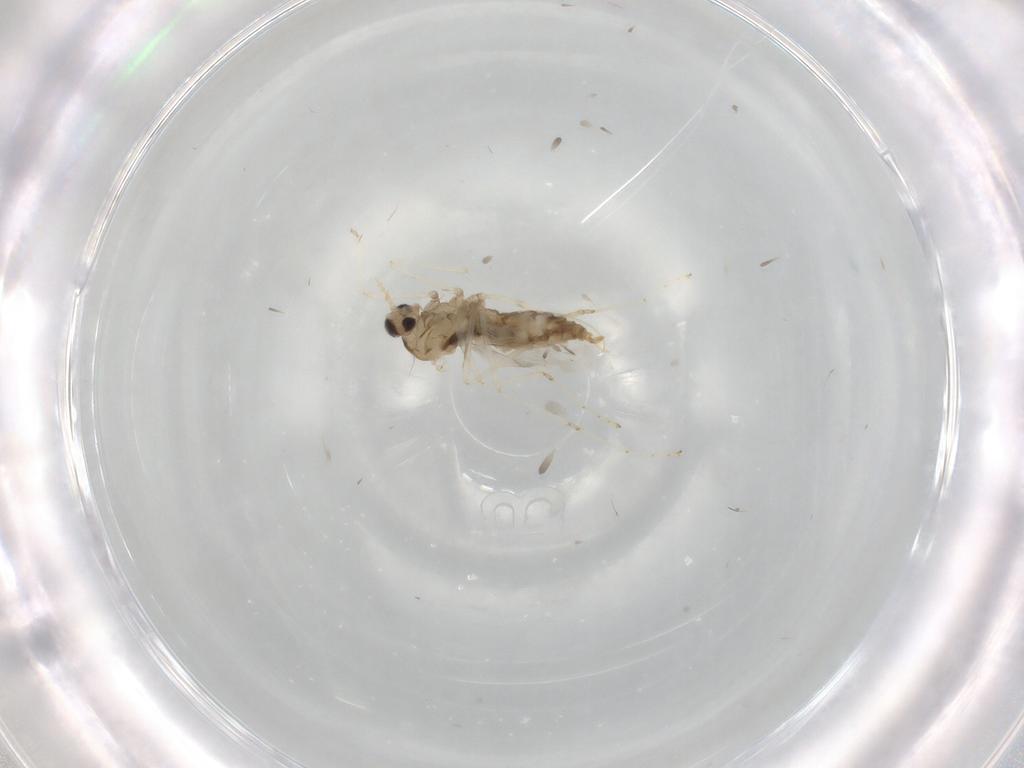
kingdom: Animalia
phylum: Arthropoda
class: Insecta
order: Diptera
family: Cecidomyiidae
